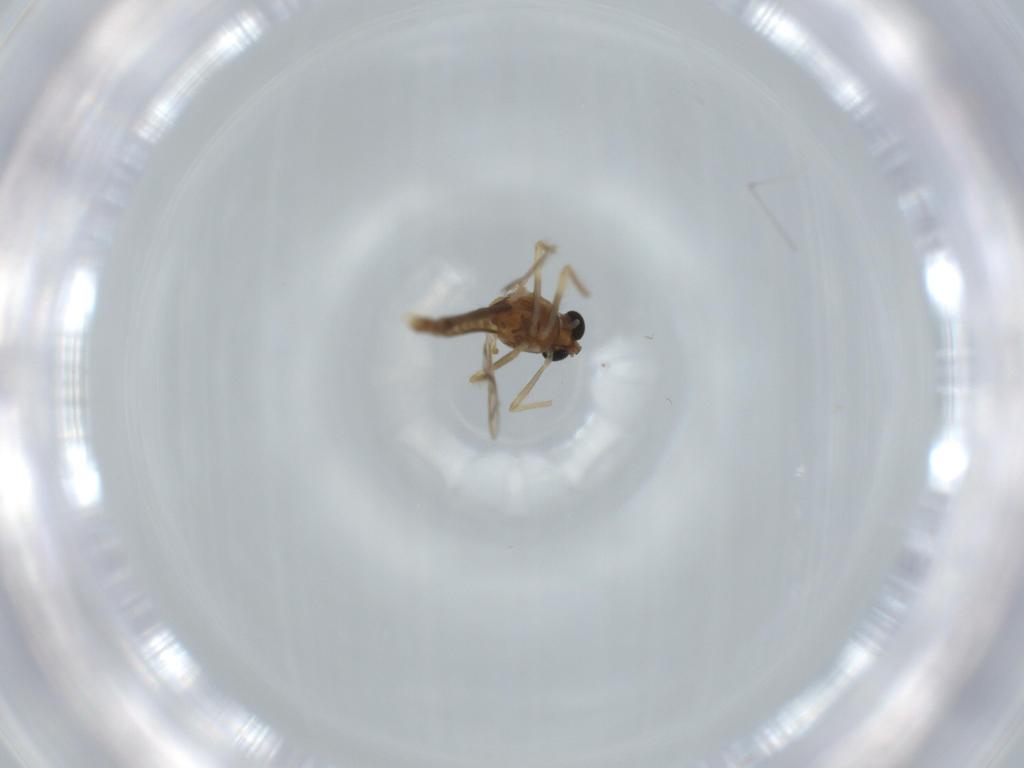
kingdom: Animalia
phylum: Arthropoda
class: Insecta
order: Diptera
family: Chironomidae
